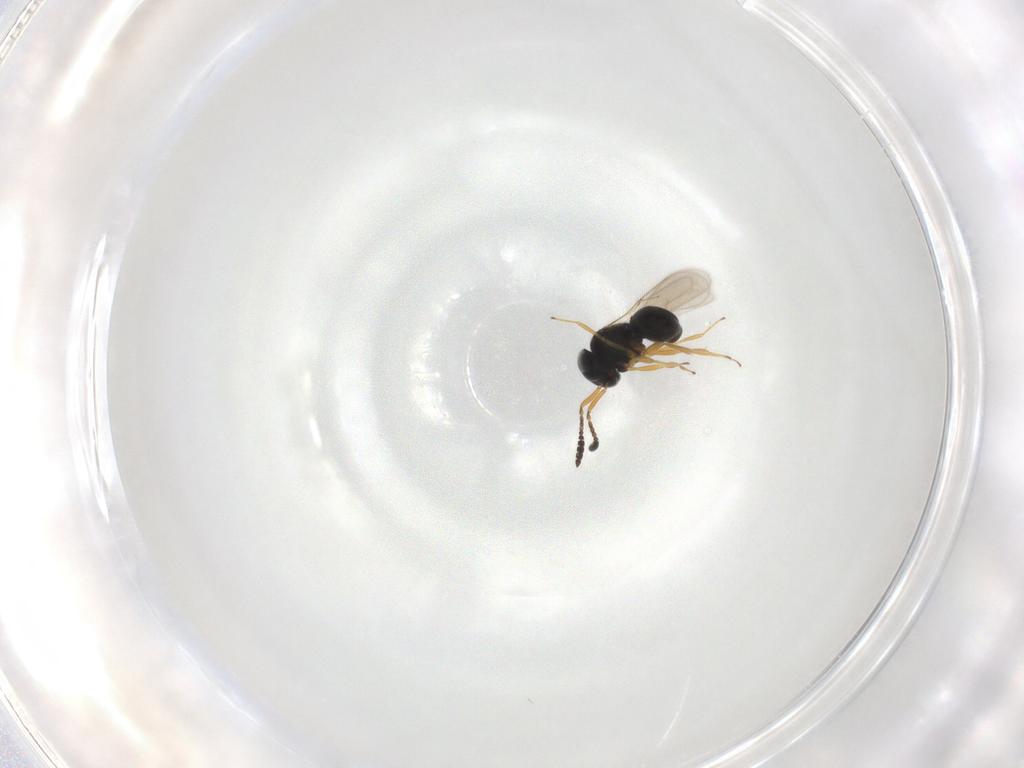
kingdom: Animalia
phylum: Arthropoda
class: Insecta
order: Hymenoptera
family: Scelionidae
